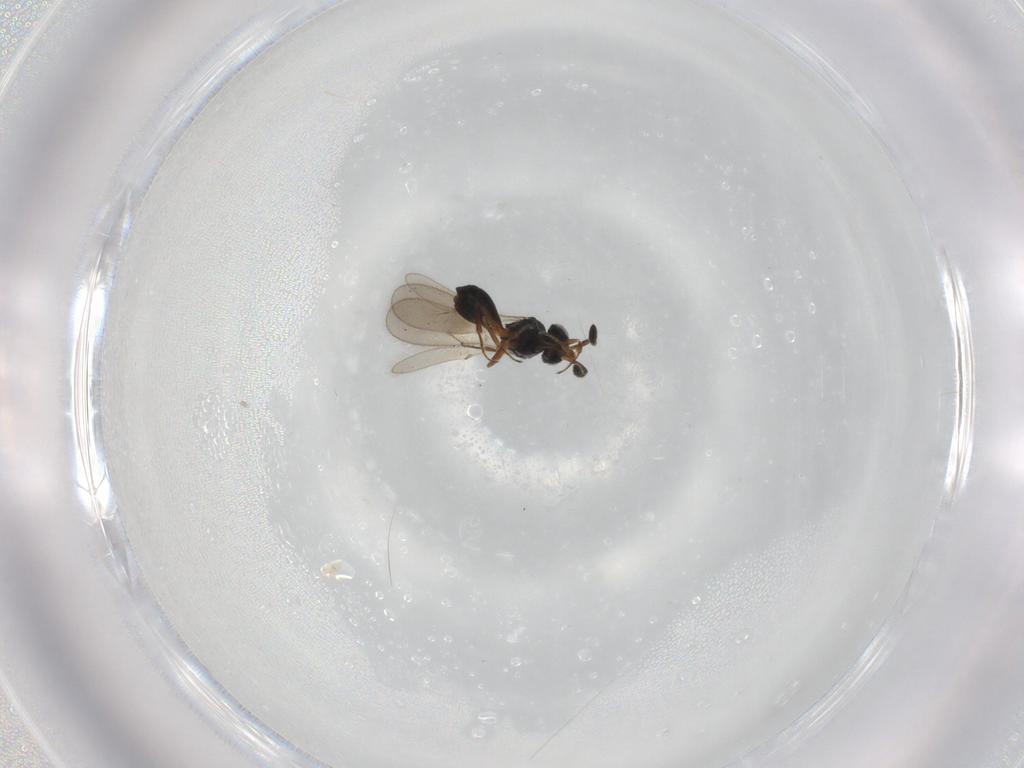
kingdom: Animalia
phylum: Arthropoda
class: Insecta
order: Hymenoptera
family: Scelionidae
